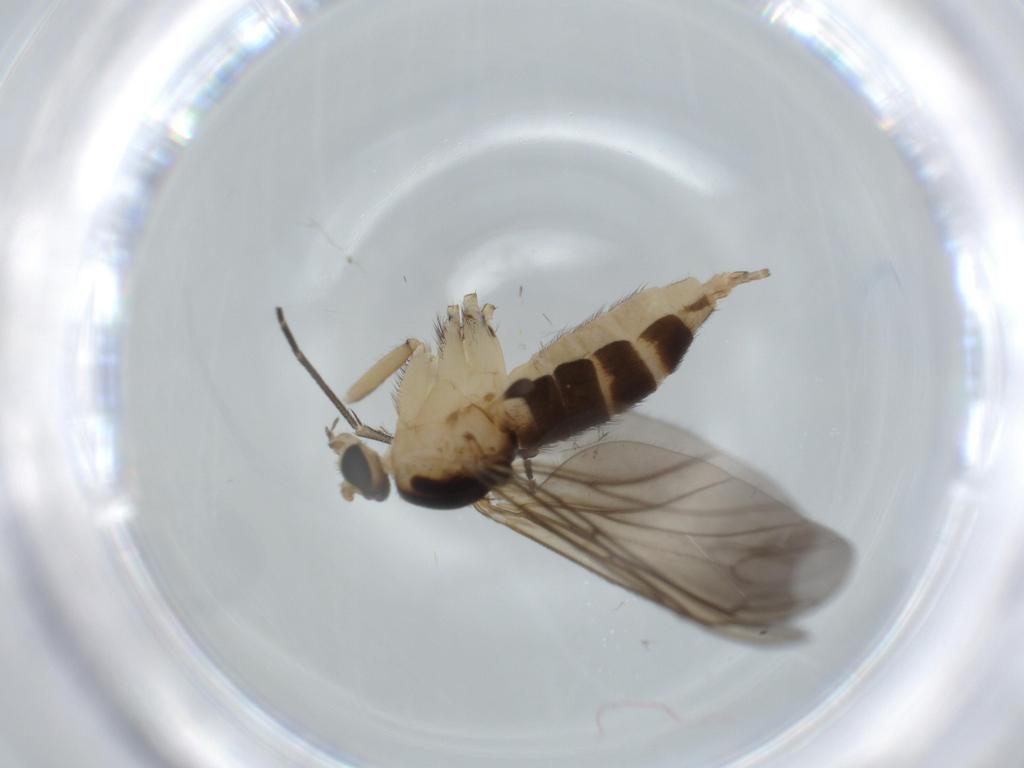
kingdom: Animalia
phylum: Arthropoda
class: Insecta
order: Diptera
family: Sciaridae
